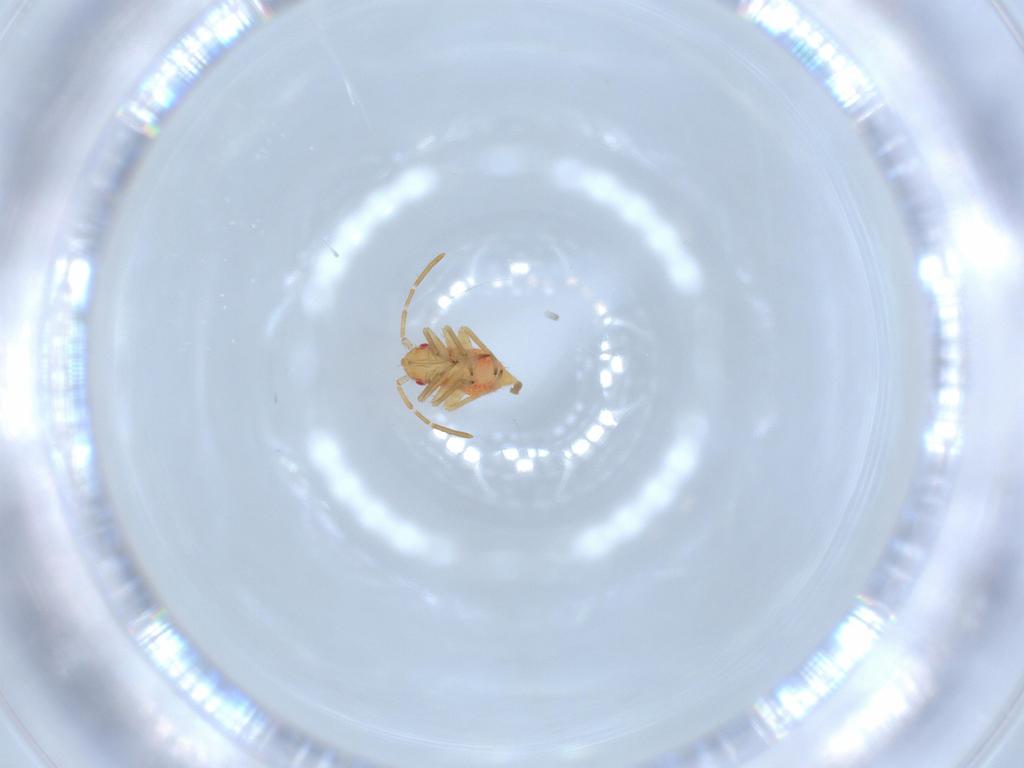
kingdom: Animalia
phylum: Arthropoda
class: Insecta
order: Hemiptera
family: Miridae
